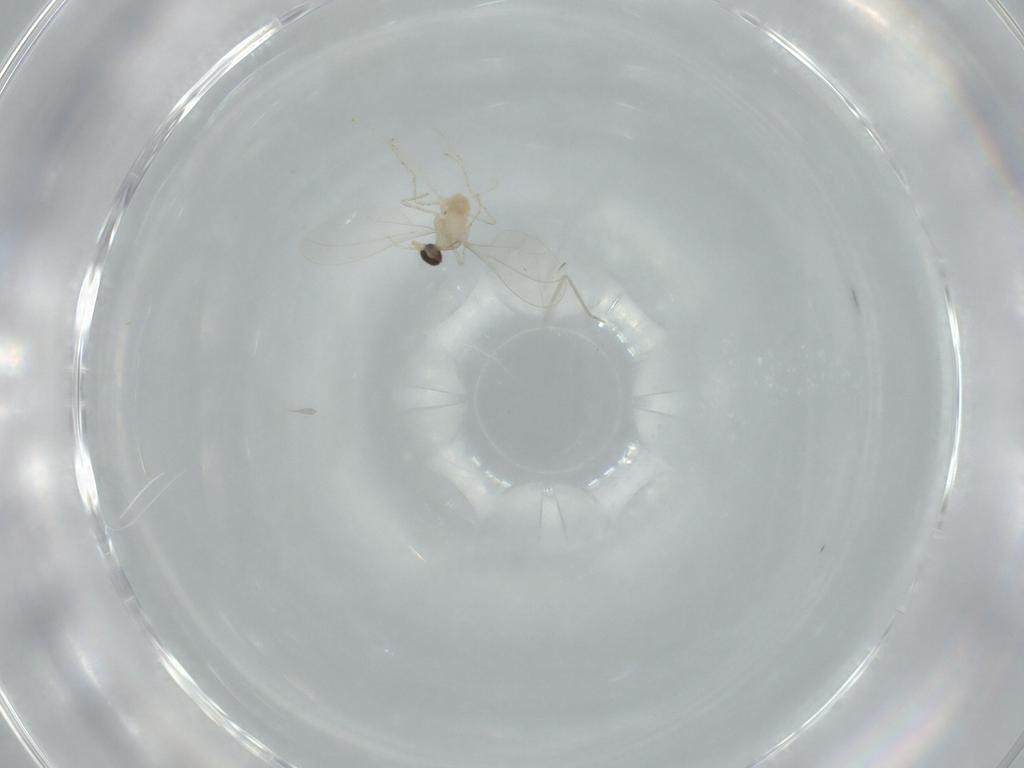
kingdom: Animalia
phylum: Arthropoda
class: Insecta
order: Diptera
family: Cecidomyiidae
